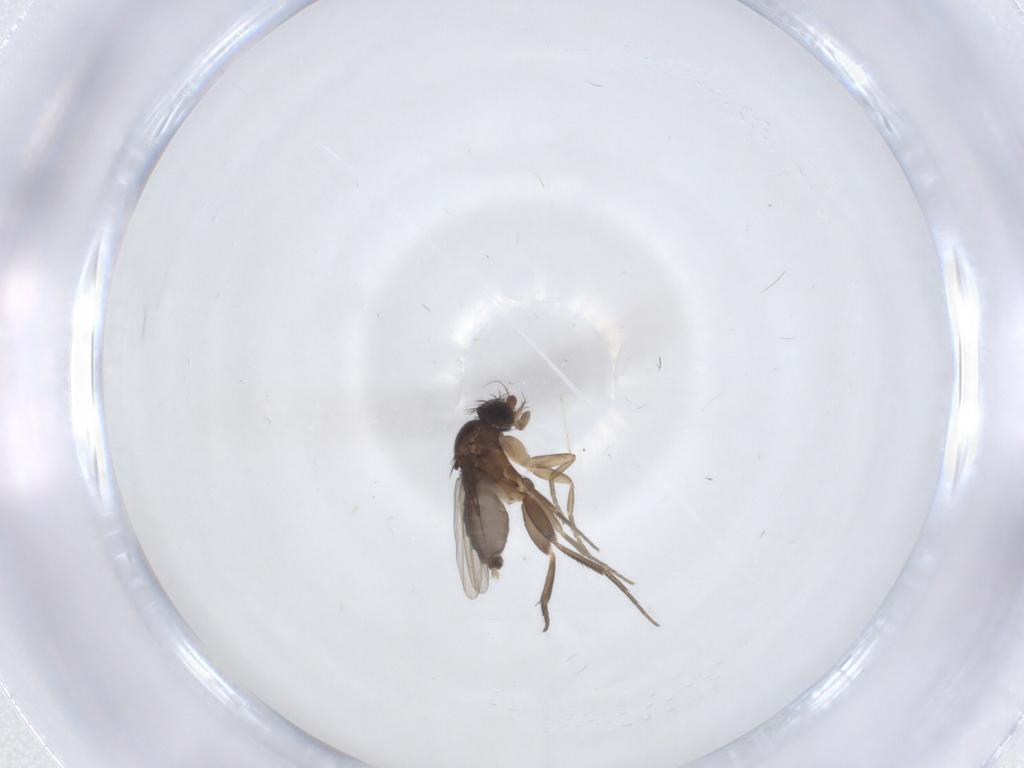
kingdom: Animalia
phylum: Arthropoda
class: Insecta
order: Diptera
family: Phoridae
